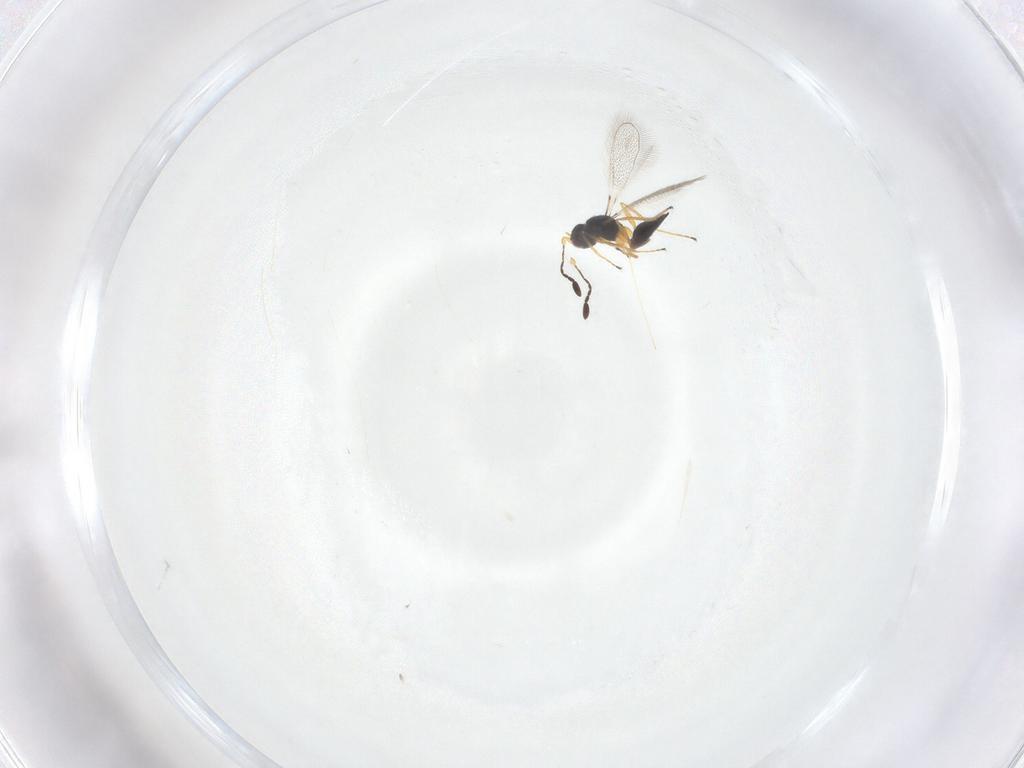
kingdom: Animalia
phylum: Arthropoda
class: Insecta
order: Hymenoptera
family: Mymaridae
